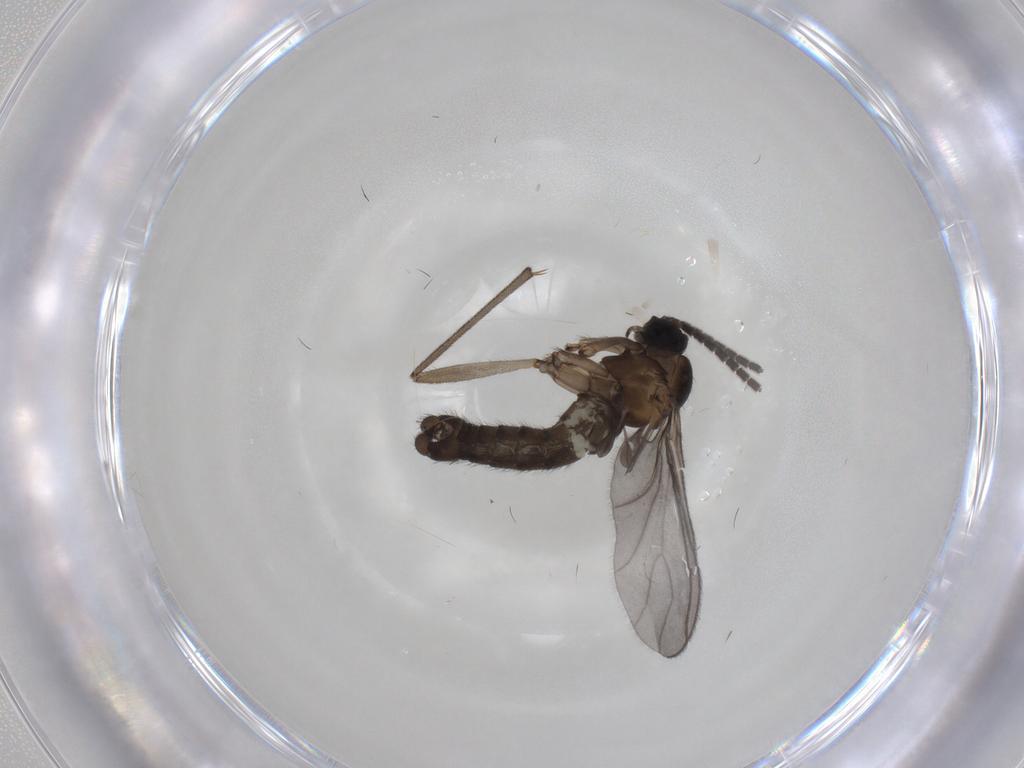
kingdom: Animalia
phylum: Arthropoda
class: Insecta
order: Diptera
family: Sciaridae
